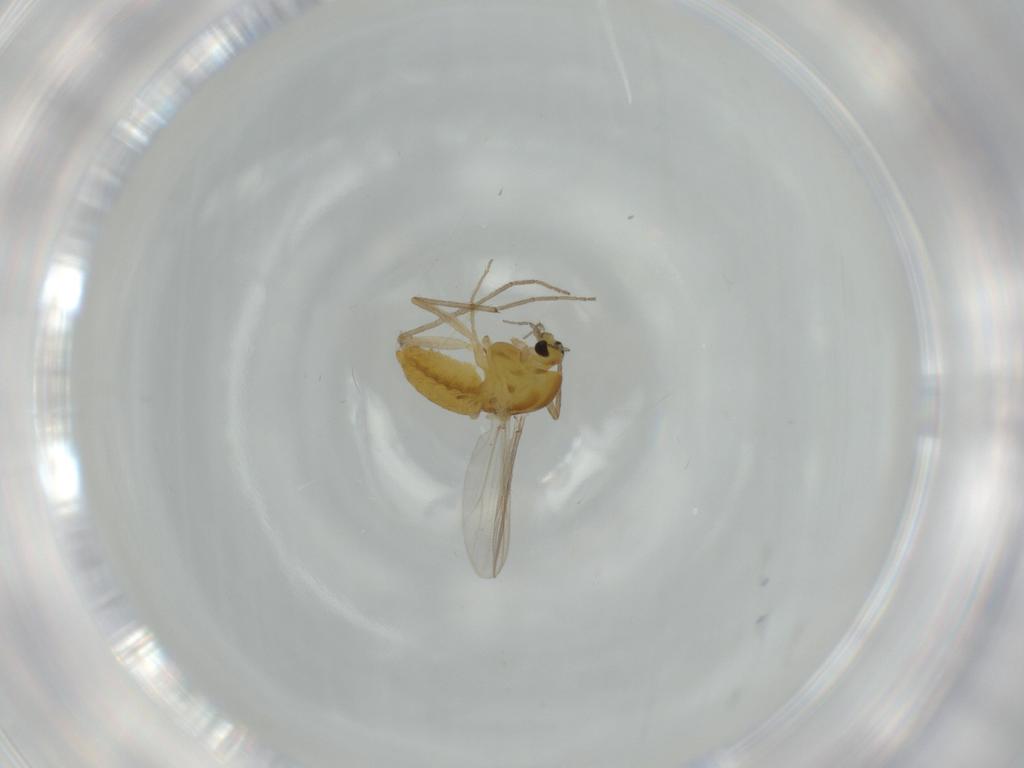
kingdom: Animalia
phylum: Arthropoda
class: Insecta
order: Diptera
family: Chironomidae
